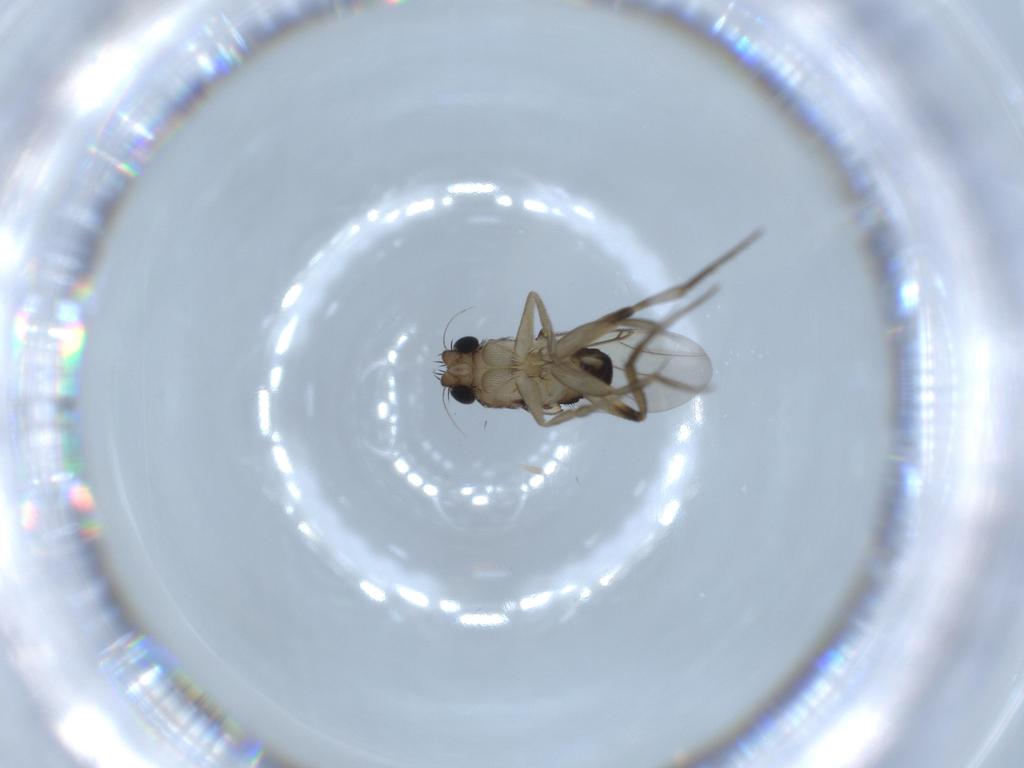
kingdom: Animalia
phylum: Arthropoda
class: Insecta
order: Diptera
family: Phoridae
